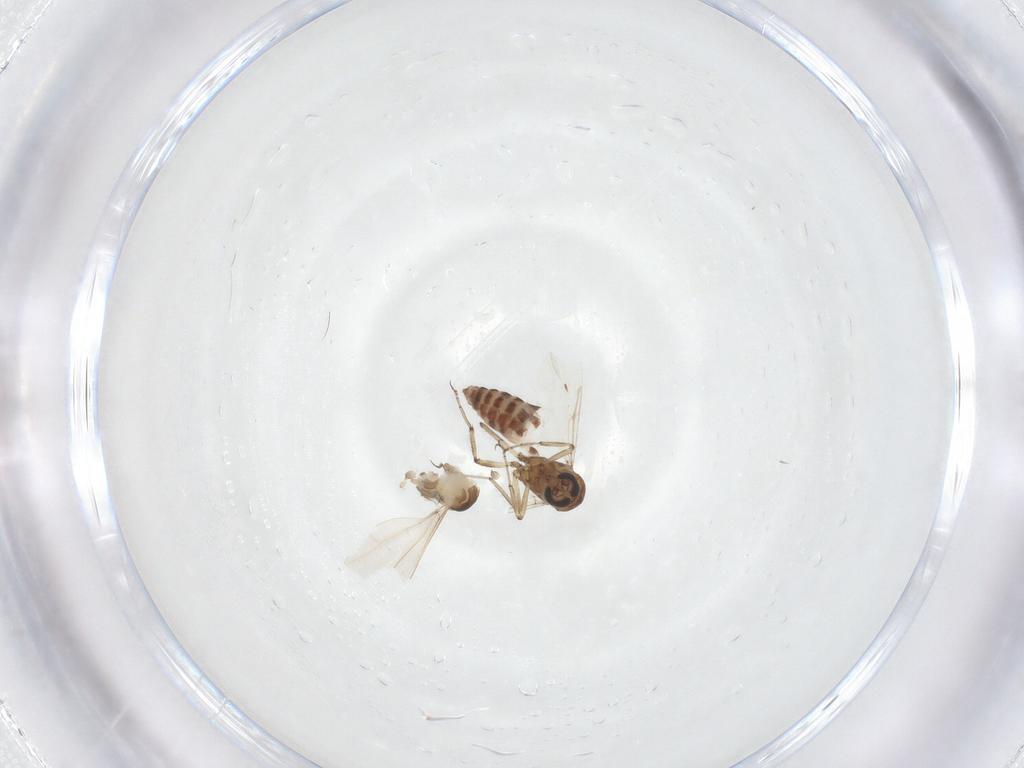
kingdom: Animalia
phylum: Arthropoda
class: Insecta
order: Diptera
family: Ceratopogonidae
